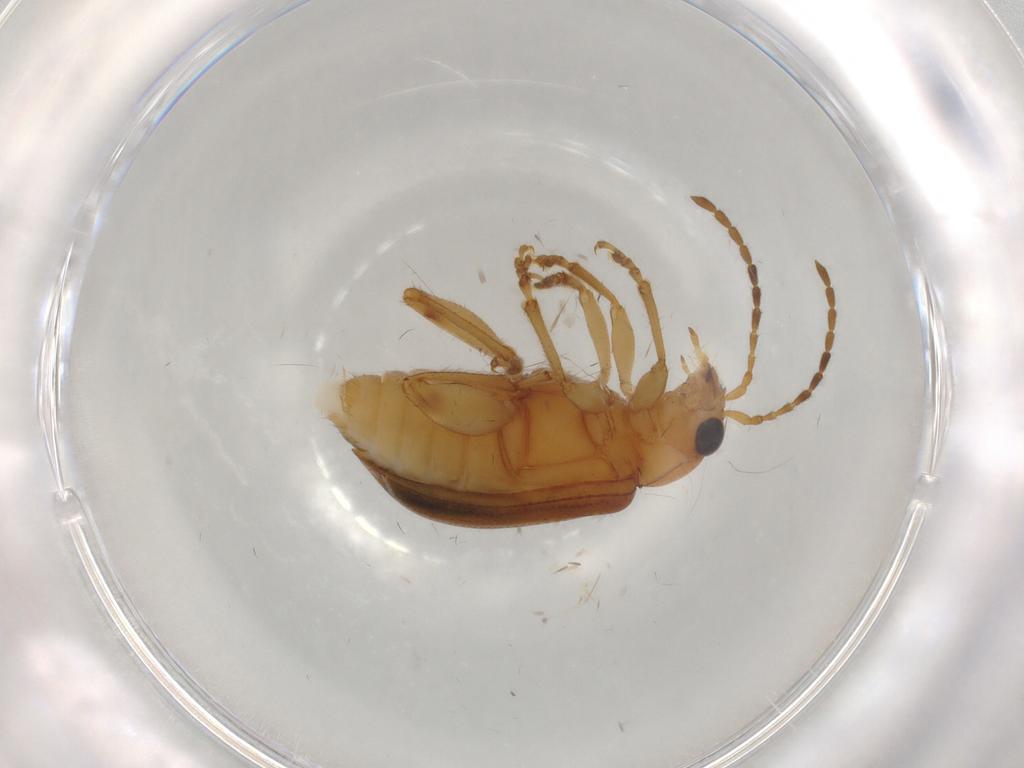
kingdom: Animalia
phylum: Arthropoda
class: Insecta
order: Coleoptera
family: Chrysomelidae
